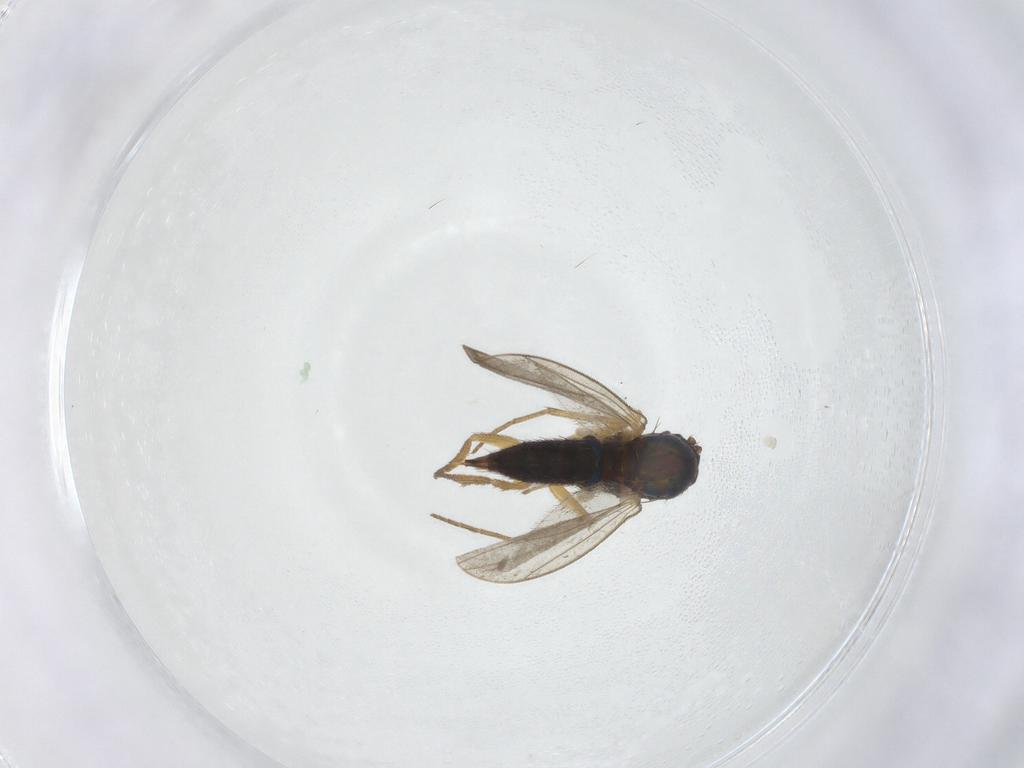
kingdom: Animalia
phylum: Arthropoda
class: Insecta
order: Diptera
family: Dolichopodidae
